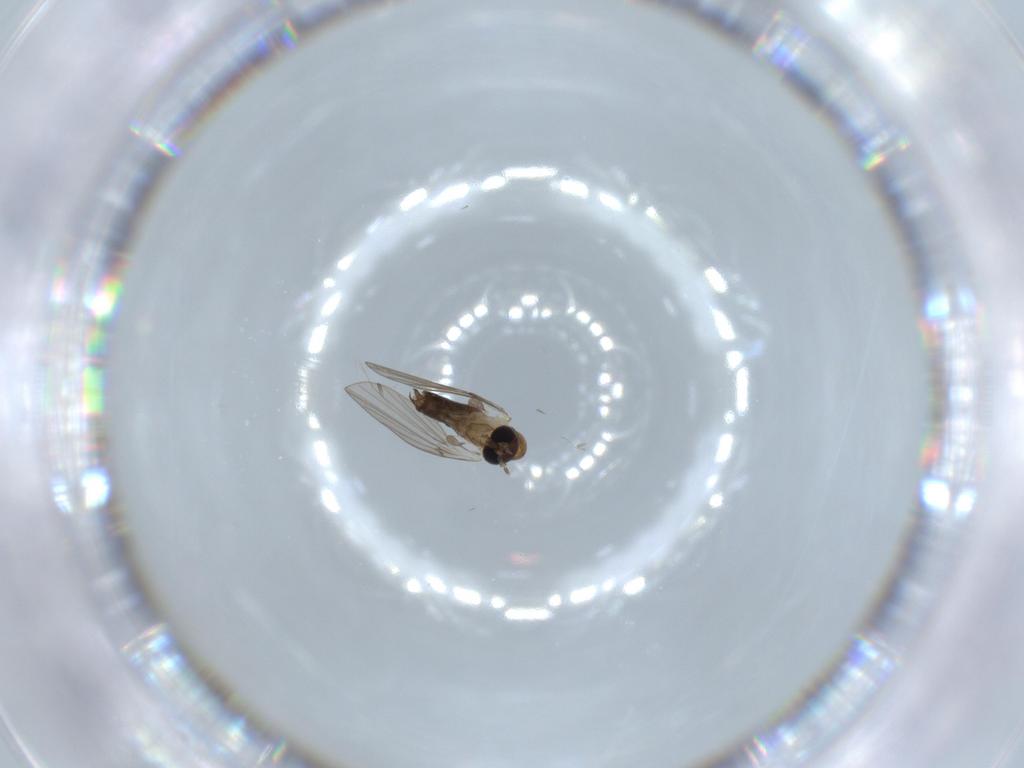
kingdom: Animalia
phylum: Arthropoda
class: Insecta
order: Diptera
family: Psychodidae
